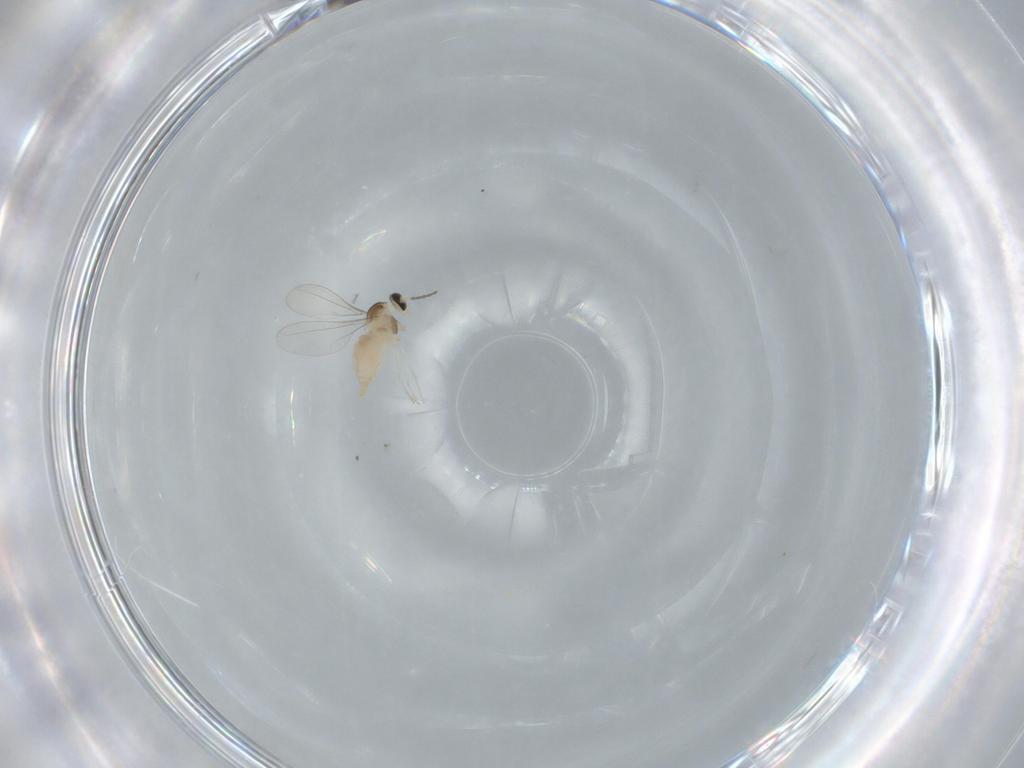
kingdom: Animalia
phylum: Arthropoda
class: Insecta
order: Diptera
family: Cecidomyiidae
